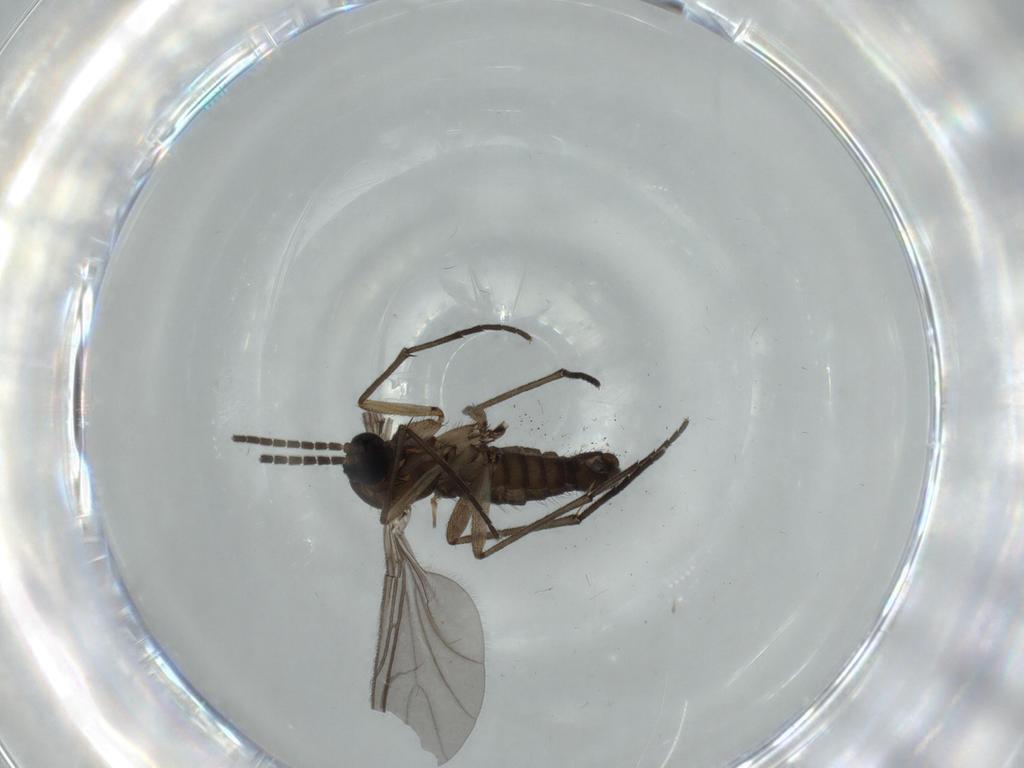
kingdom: Animalia
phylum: Arthropoda
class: Insecta
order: Diptera
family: Sciaridae
